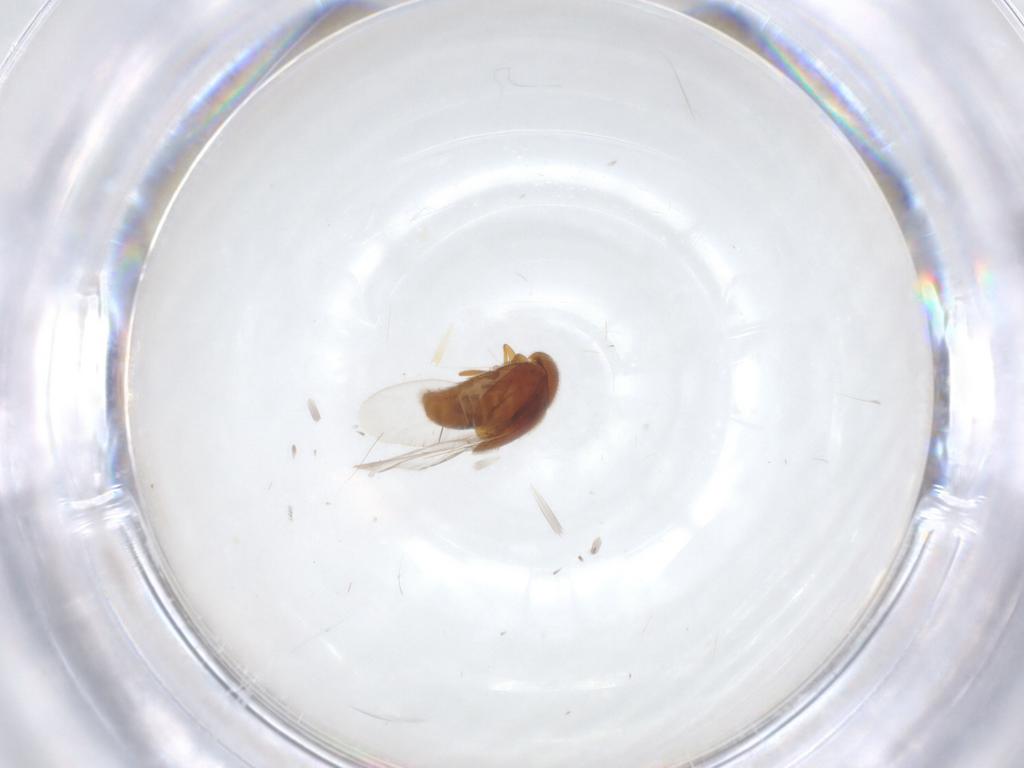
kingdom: Animalia
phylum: Arthropoda
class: Insecta
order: Coleoptera
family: Corylophidae
